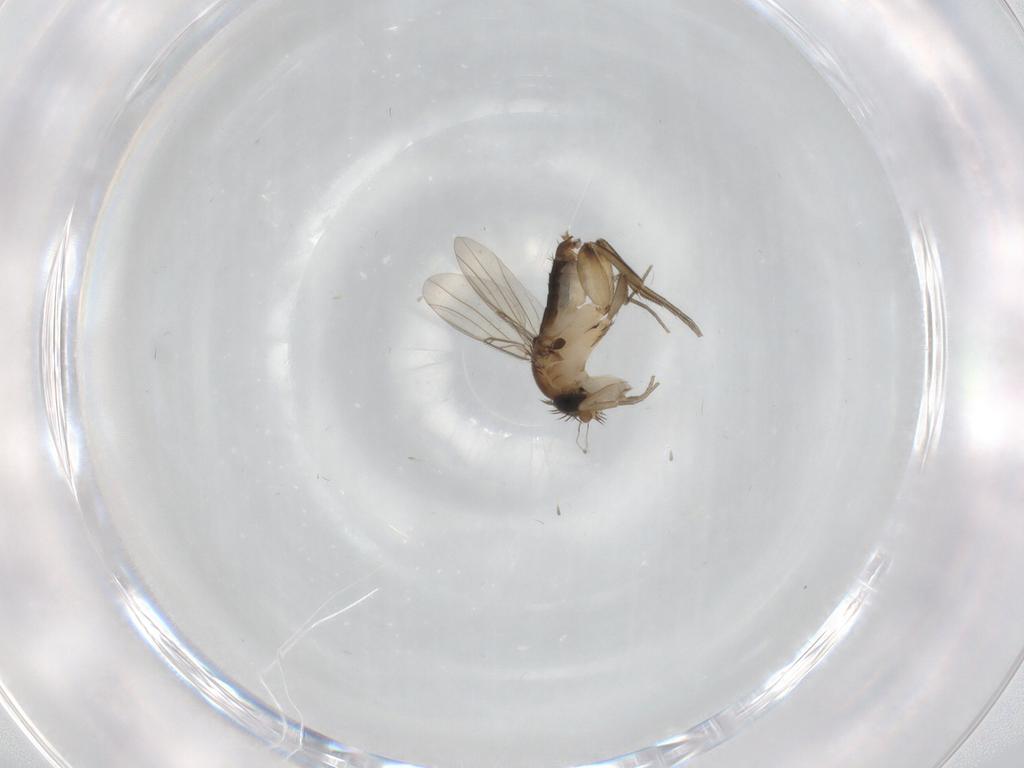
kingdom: Animalia
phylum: Arthropoda
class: Insecta
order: Diptera
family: Phoridae
